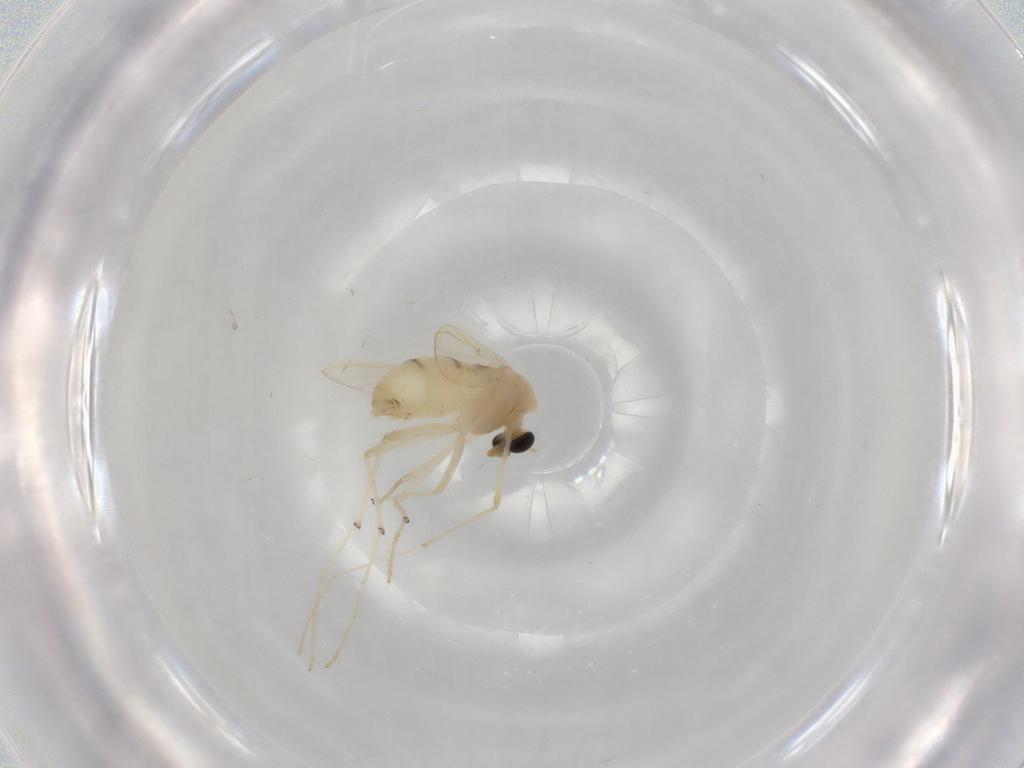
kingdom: Animalia
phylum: Arthropoda
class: Insecta
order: Diptera
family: Chironomidae
